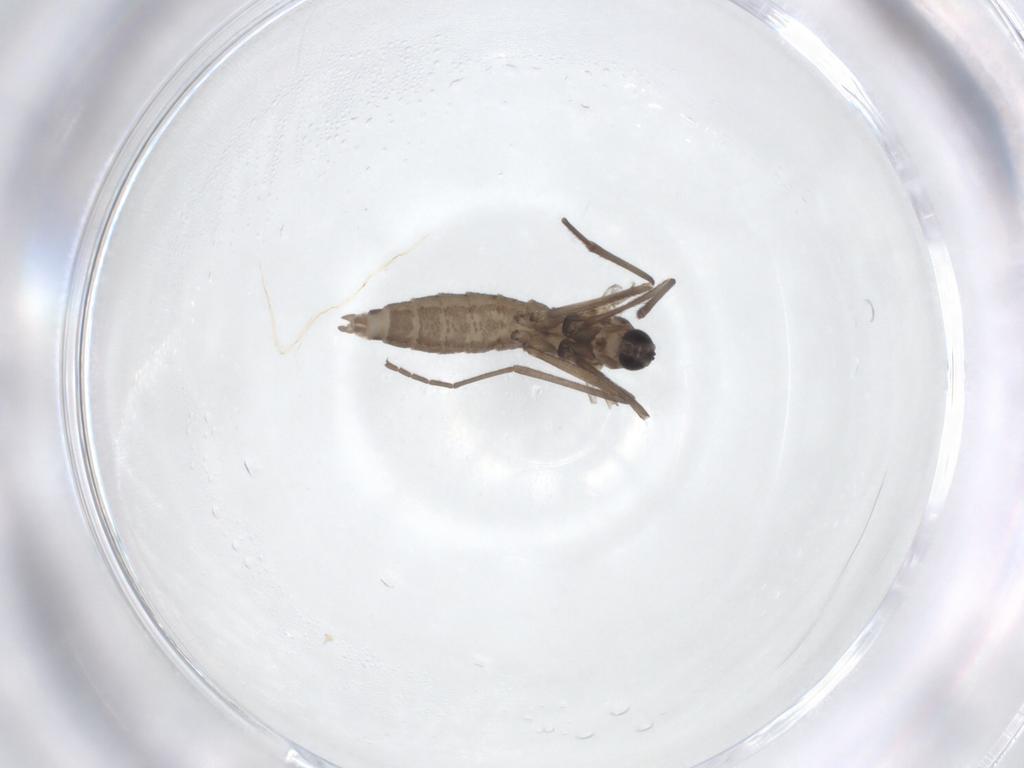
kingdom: Animalia
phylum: Arthropoda
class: Insecta
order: Diptera
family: Cecidomyiidae
